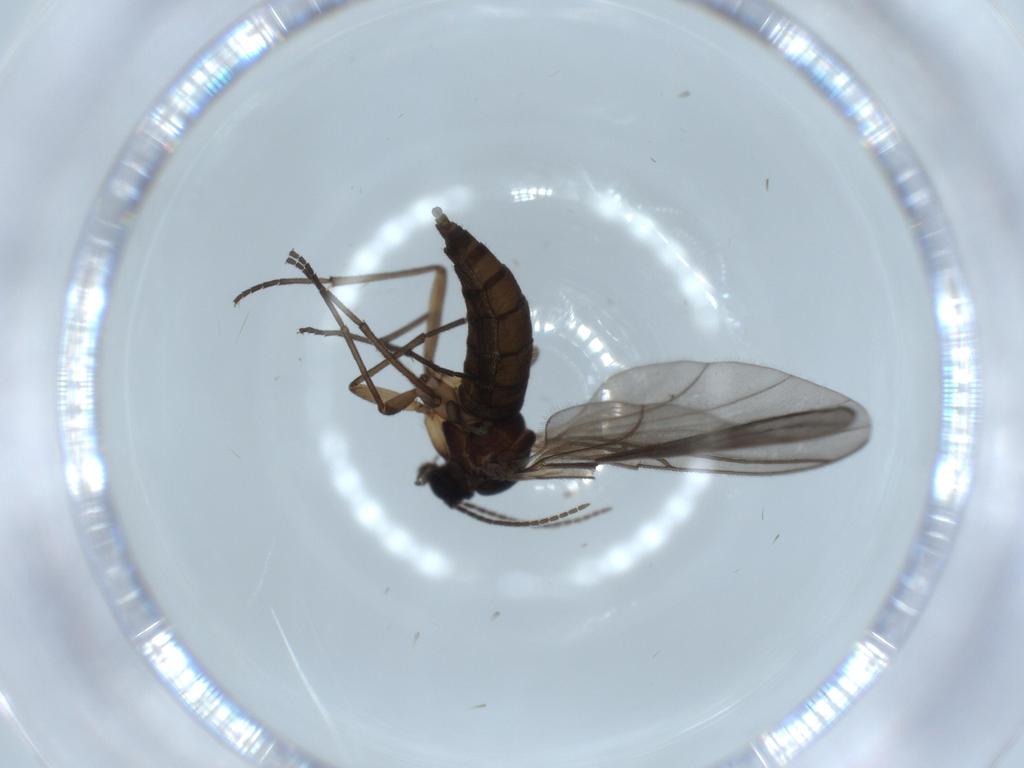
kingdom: Animalia
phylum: Arthropoda
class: Insecta
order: Diptera
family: Sciaridae
